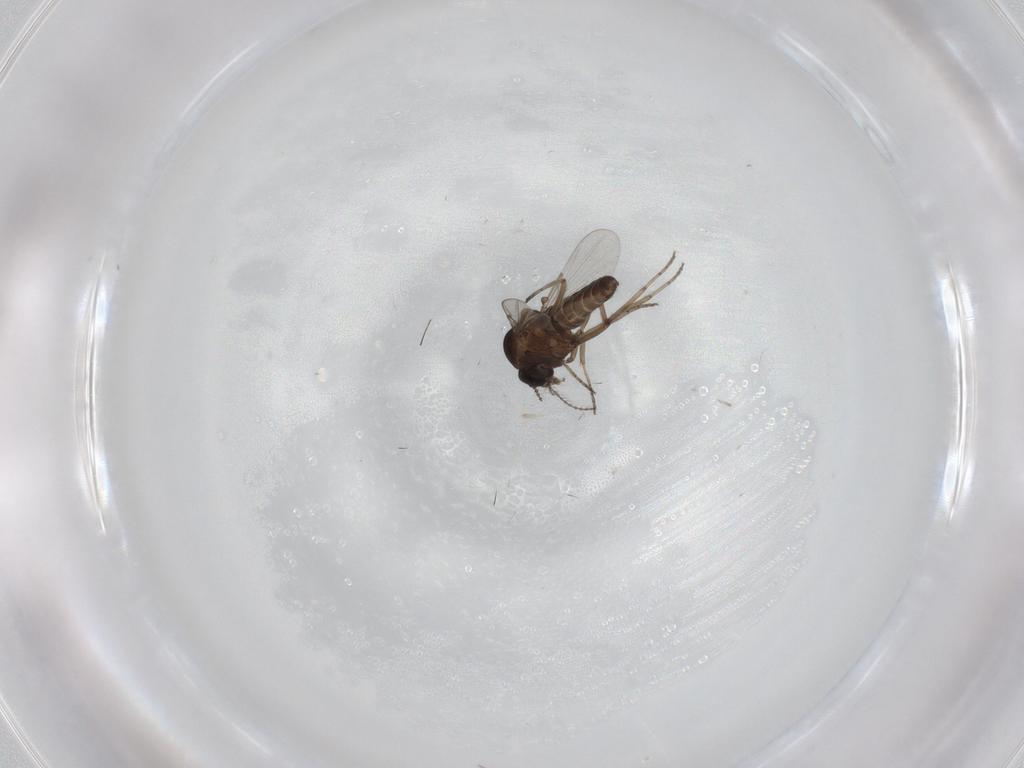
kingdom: Animalia
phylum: Arthropoda
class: Insecta
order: Diptera
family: Ceratopogonidae
